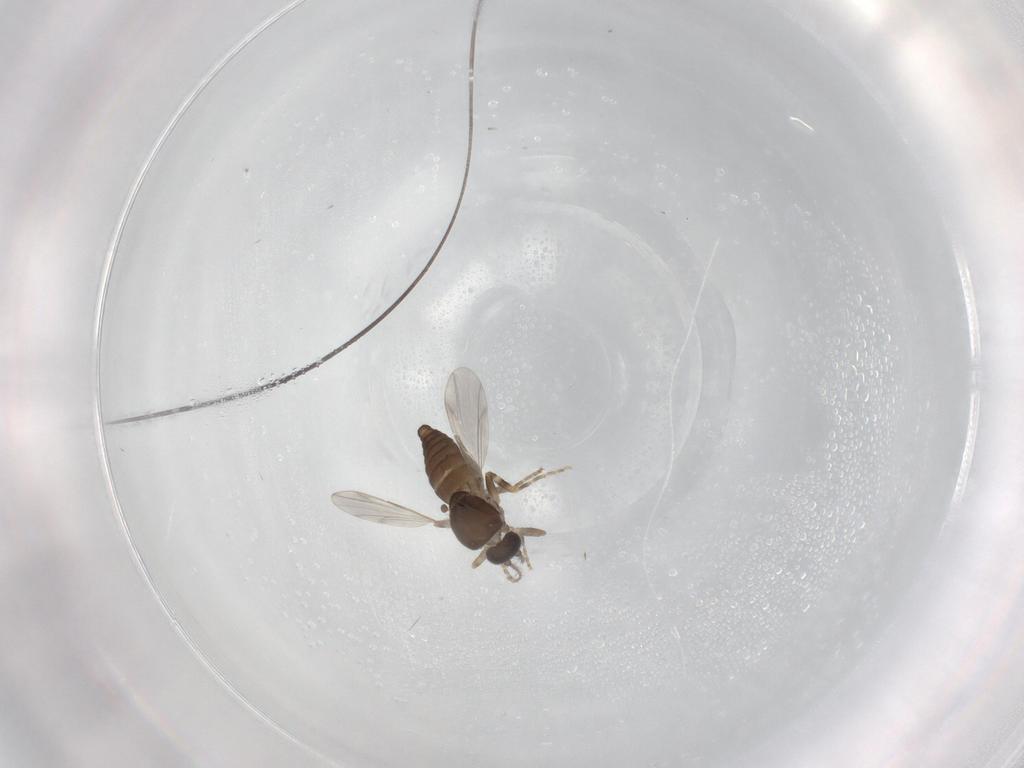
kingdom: Animalia
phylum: Arthropoda
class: Insecta
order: Diptera
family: Ceratopogonidae
